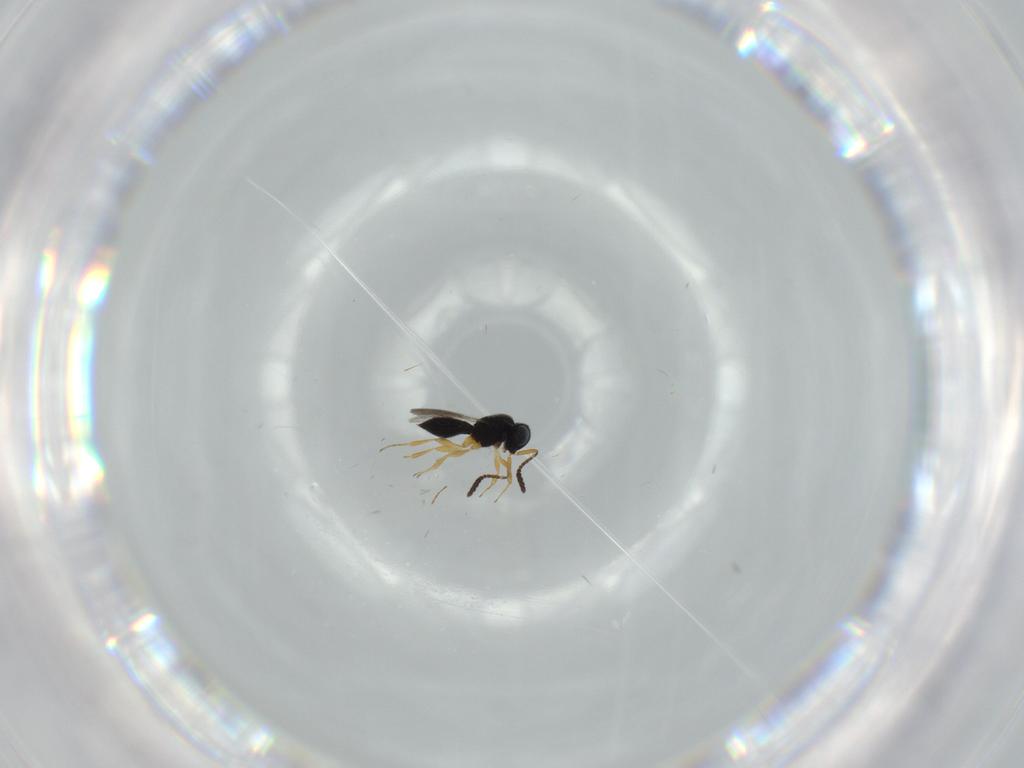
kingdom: Animalia
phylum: Arthropoda
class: Insecta
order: Hymenoptera
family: Scelionidae
